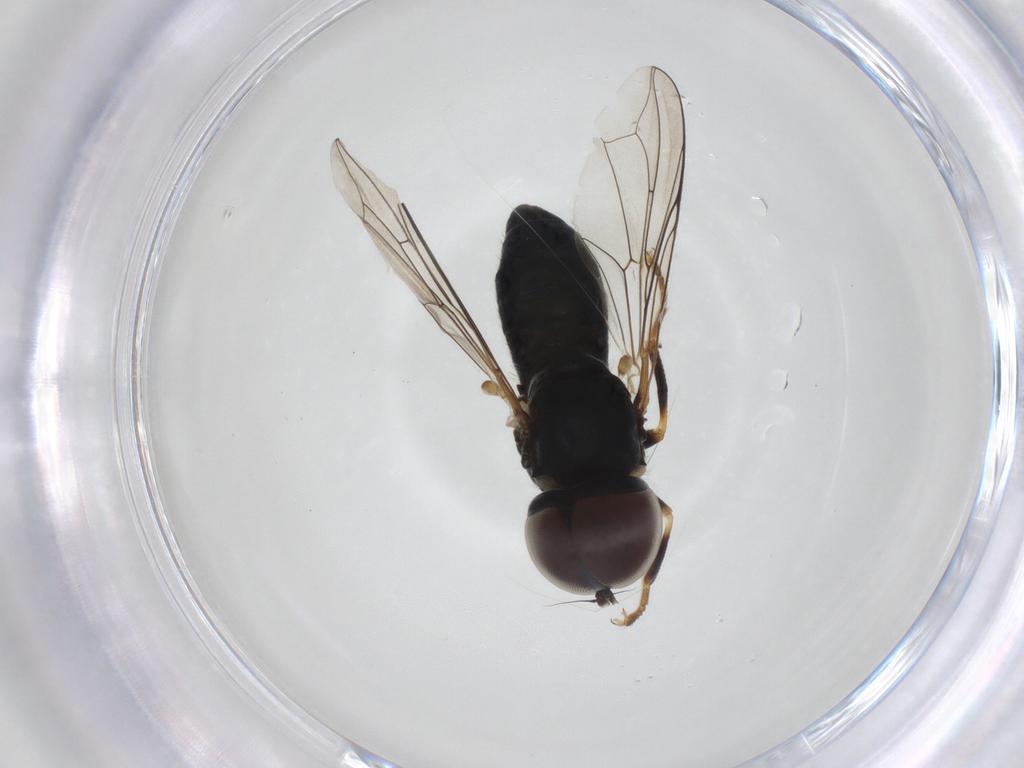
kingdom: Animalia
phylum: Arthropoda
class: Insecta
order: Diptera
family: Pipunculidae
